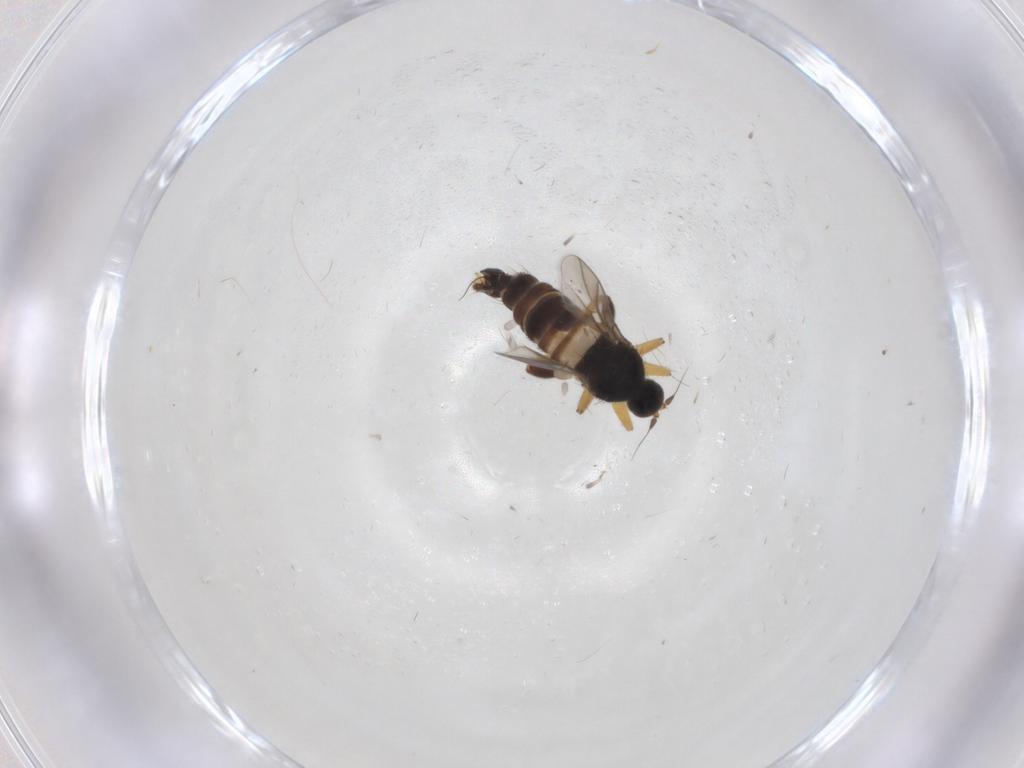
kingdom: Animalia
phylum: Arthropoda
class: Insecta
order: Diptera
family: Hybotidae
